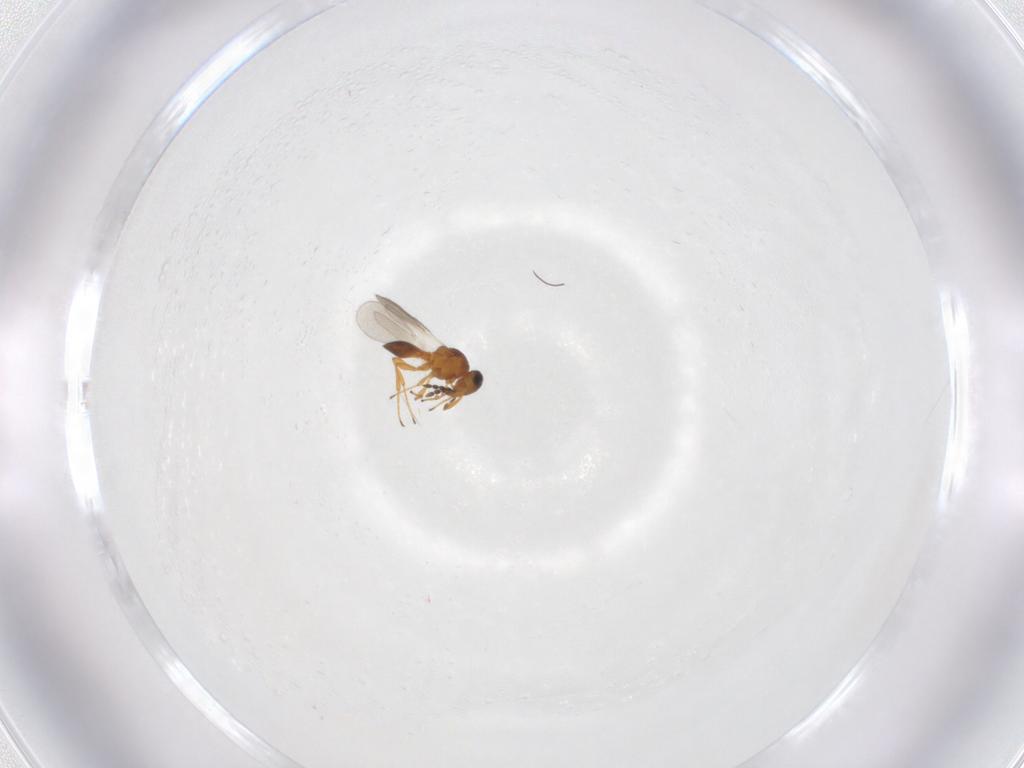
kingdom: Animalia
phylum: Arthropoda
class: Insecta
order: Hymenoptera
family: Platygastridae
